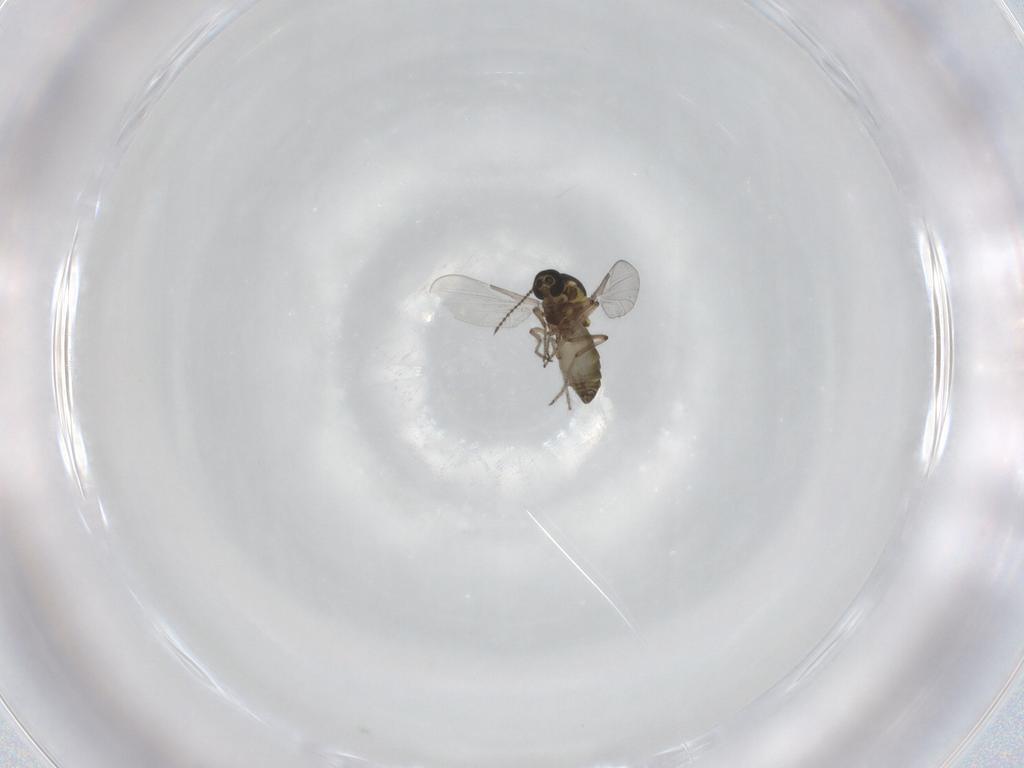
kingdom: Animalia
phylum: Arthropoda
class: Insecta
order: Diptera
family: Ceratopogonidae
